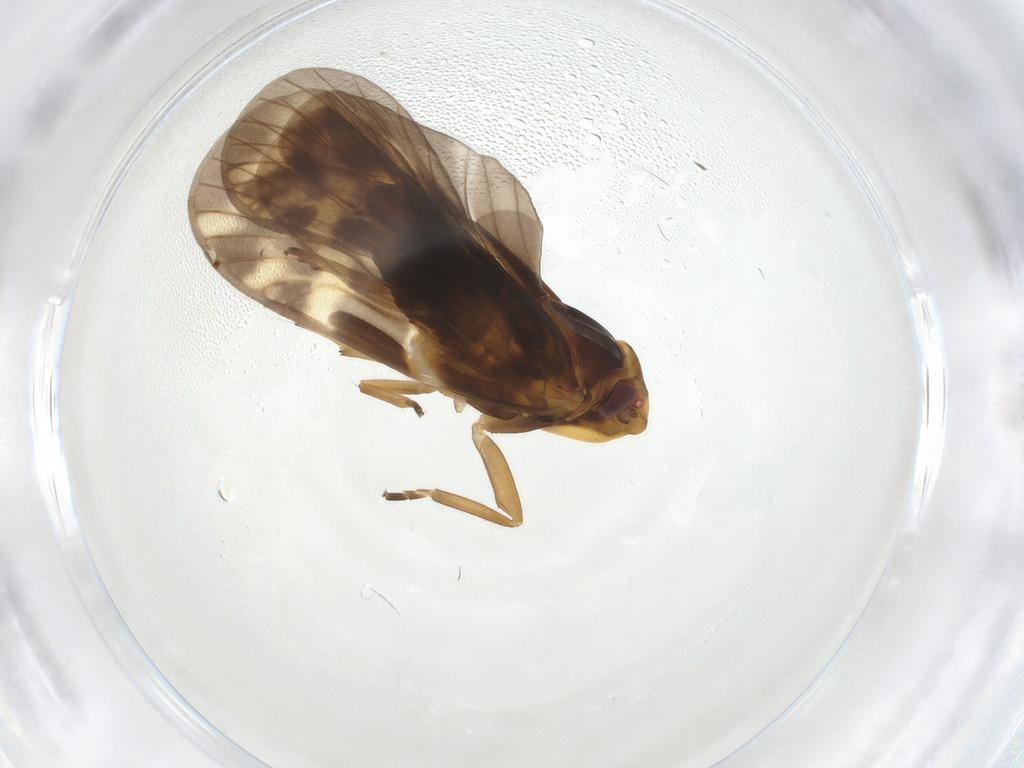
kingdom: Animalia
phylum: Arthropoda
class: Insecta
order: Hemiptera
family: Cixiidae
